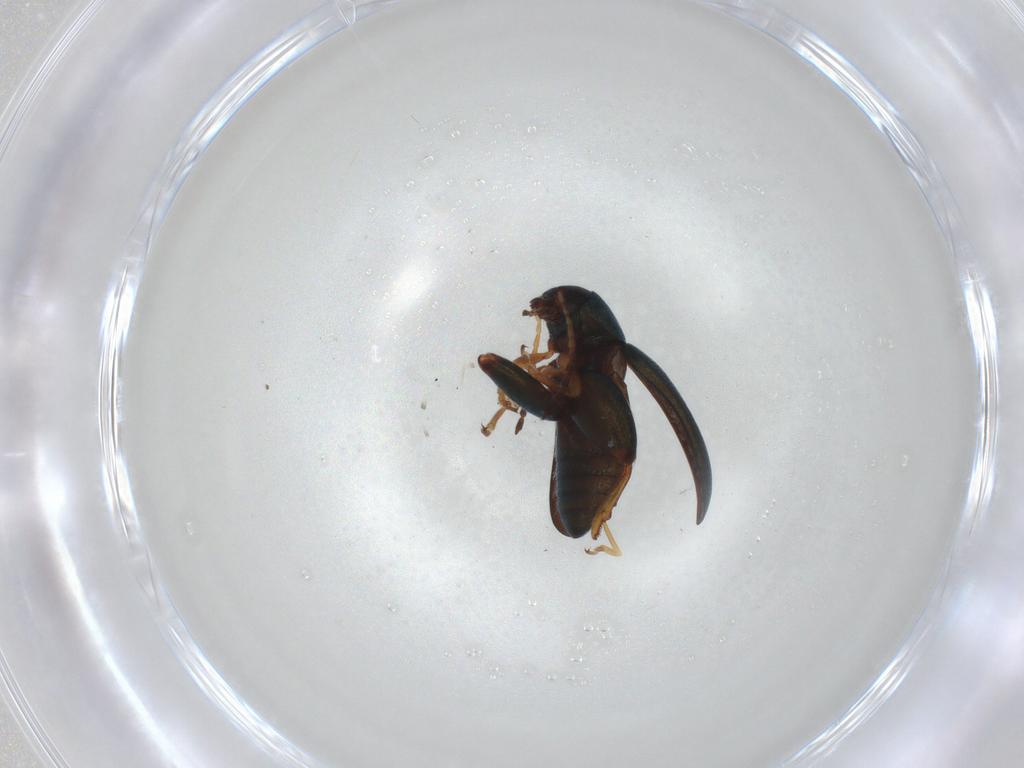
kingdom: Animalia
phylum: Arthropoda
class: Insecta
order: Coleoptera
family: Chrysomelidae
